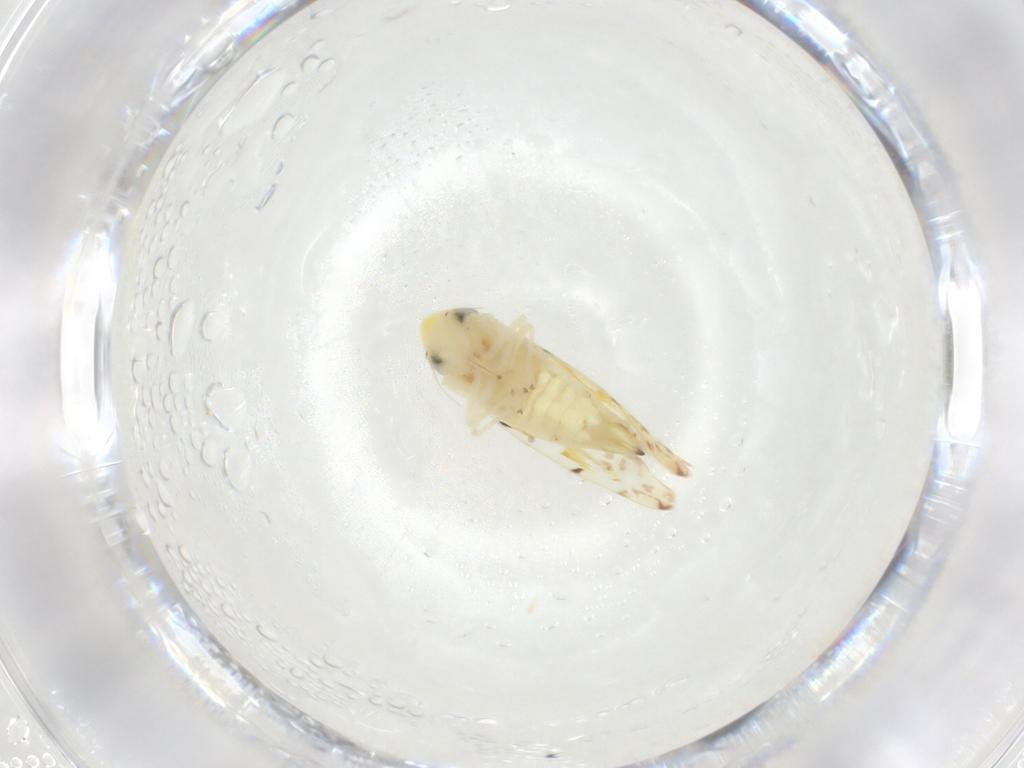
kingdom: Animalia
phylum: Arthropoda
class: Insecta
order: Hemiptera
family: Cicadellidae
